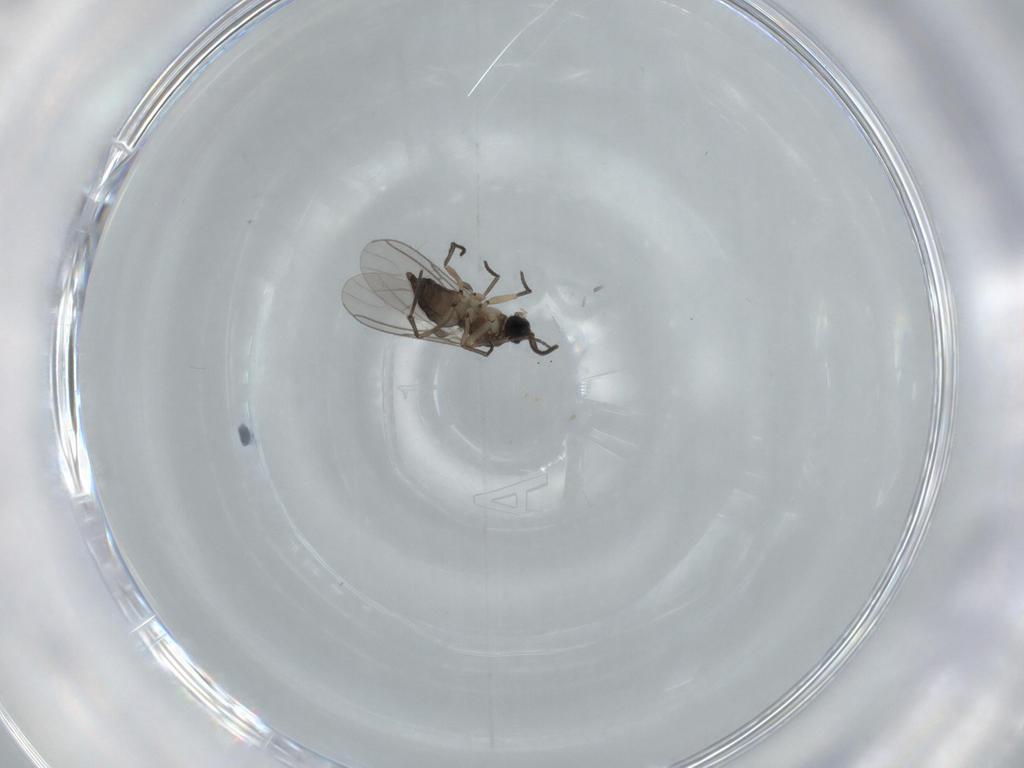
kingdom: Animalia
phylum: Arthropoda
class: Insecta
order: Diptera
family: Sciaridae
